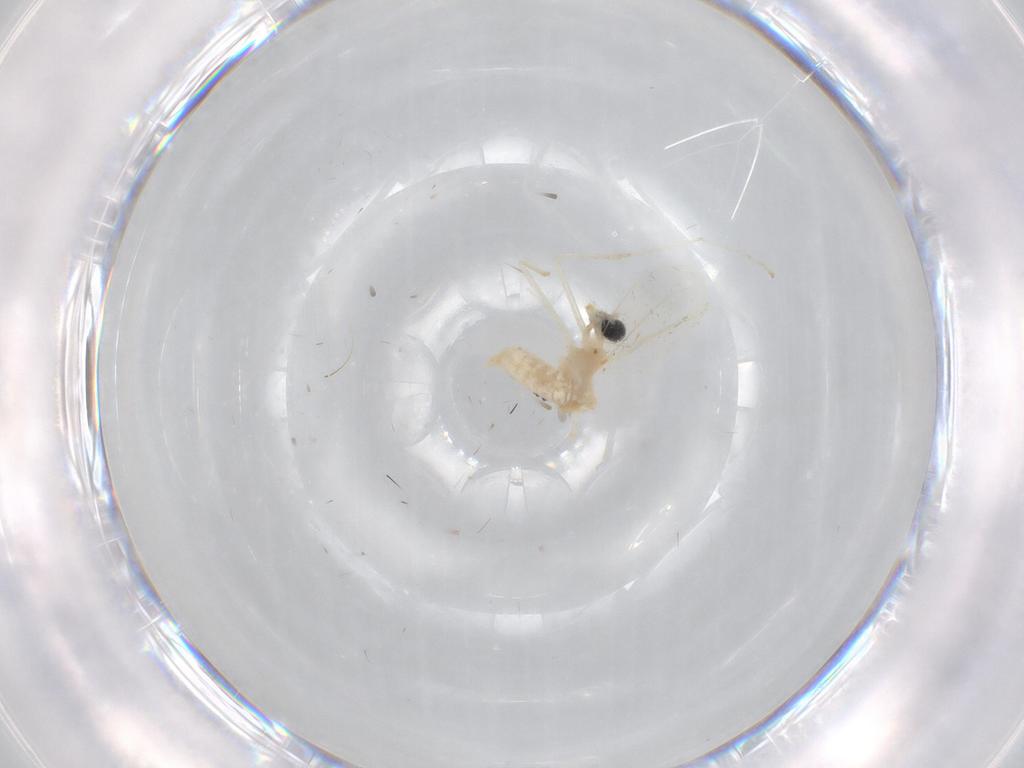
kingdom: Animalia
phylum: Arthropoda
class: Insecta
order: Diptera
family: Cecidomyiidae
